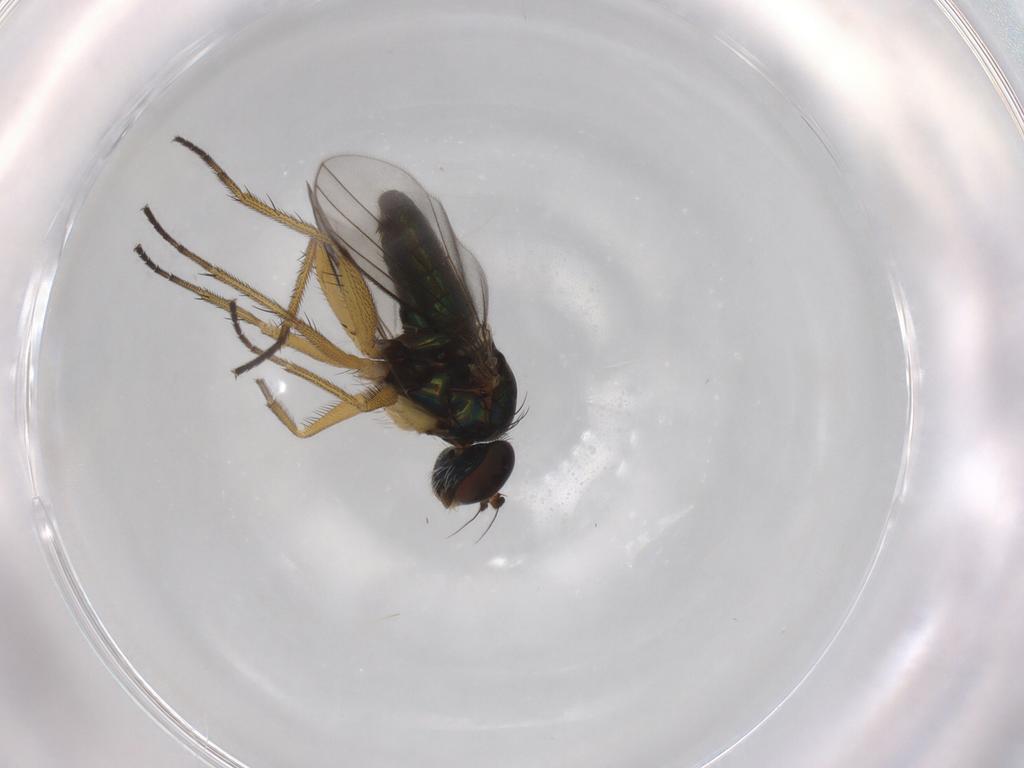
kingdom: Animalia
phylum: Arthropoda
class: Insecta
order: Diptera
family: Dolichopodidae
